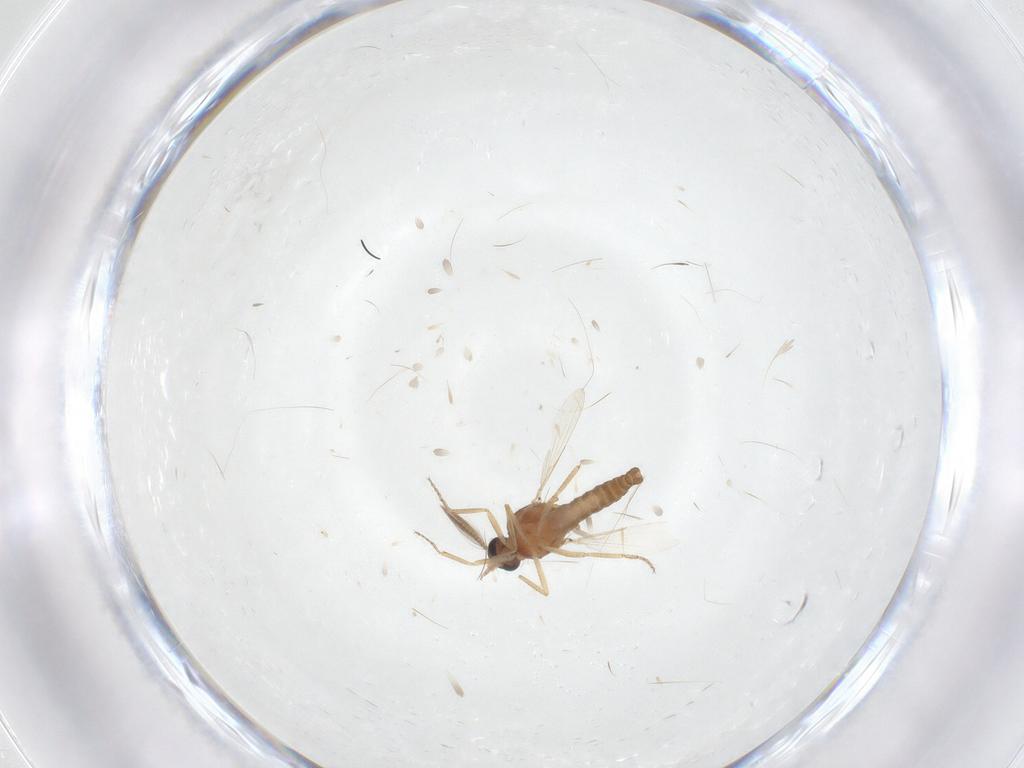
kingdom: Animalia
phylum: Arthropoda
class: Insecta
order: Diptera
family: Ceratopogonidae
